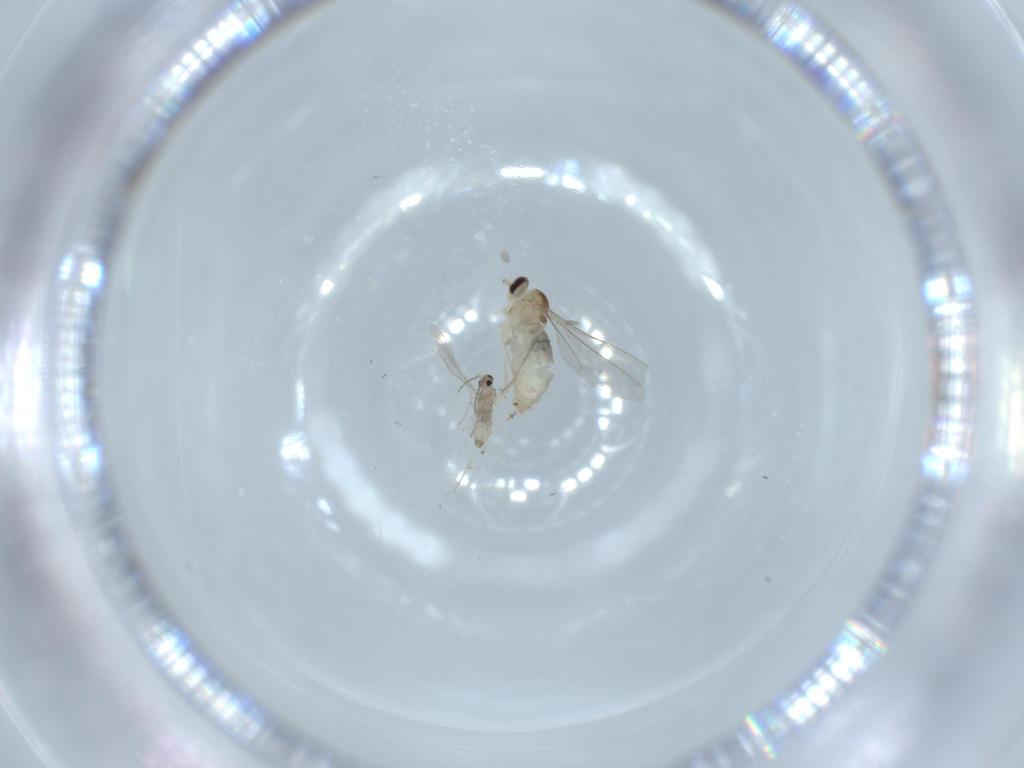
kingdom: Animalia
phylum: Arthropoda
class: Insecta
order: Diptera
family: Cecidomyiidae
